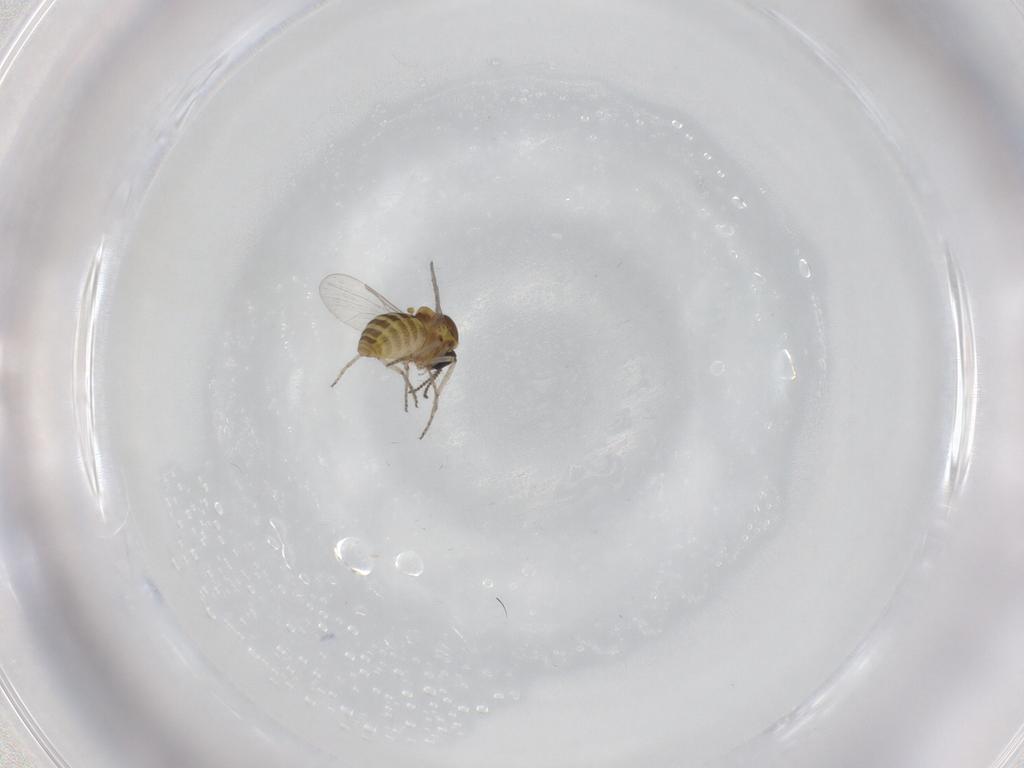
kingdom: Animalia
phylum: Arthropoda
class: Insecta
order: Diptera
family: Ceratopogonidae
